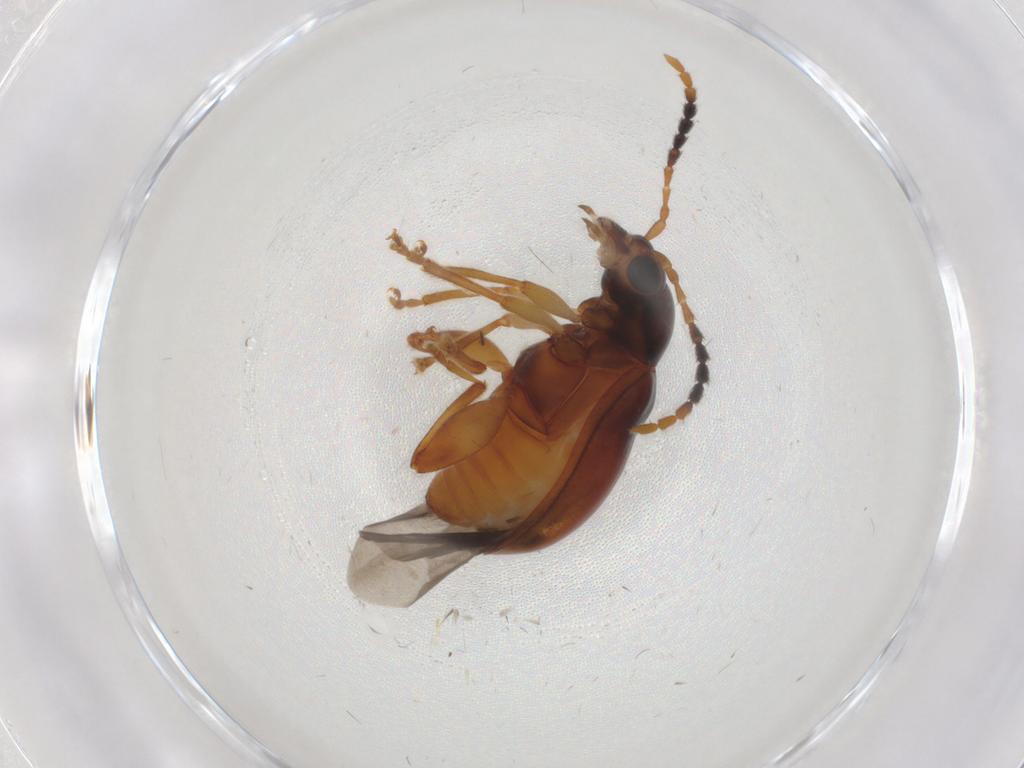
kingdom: Animalia
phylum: Arthropoda
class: Insecta
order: Coleoptera
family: Chrysomelidae
